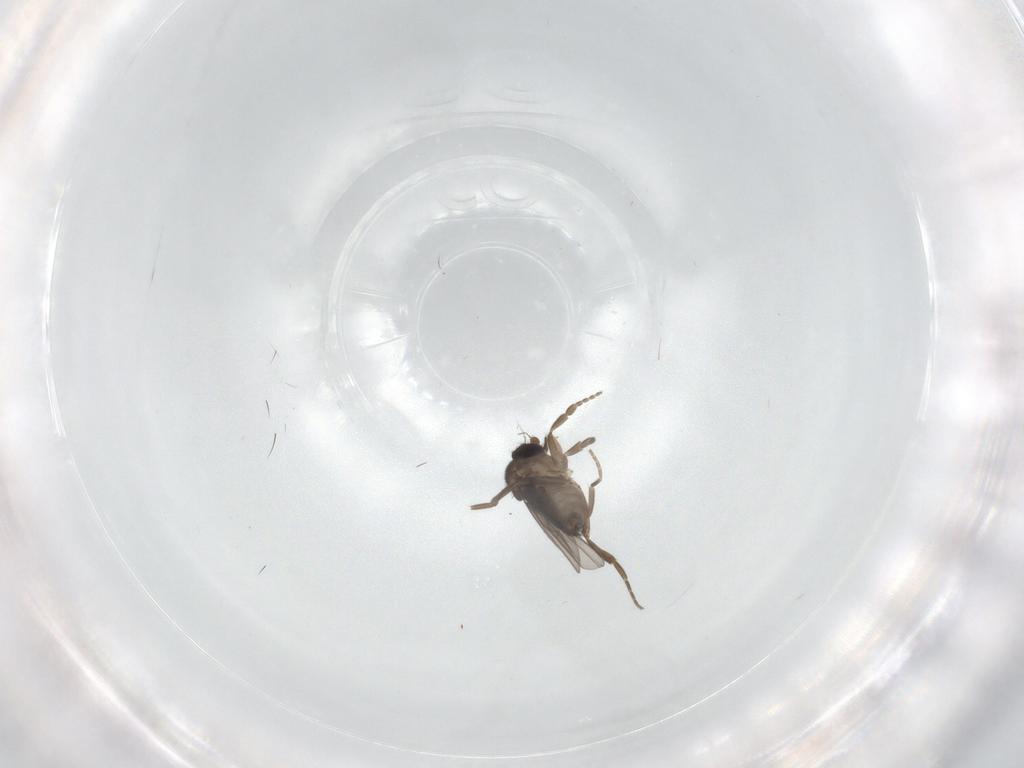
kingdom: Animalia
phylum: Arthropoda
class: Insecta
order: Diptera
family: Phoridae
